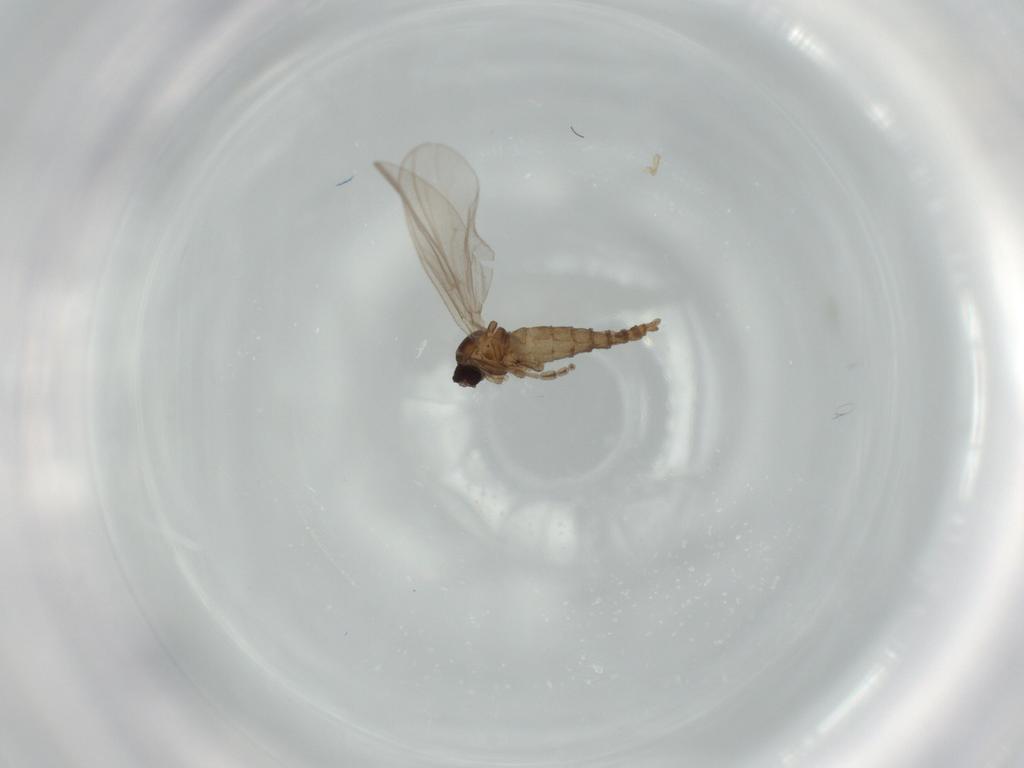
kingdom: Animalia
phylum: Arthropoda
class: Insecta
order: Diptera
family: Cecidomyiidae
